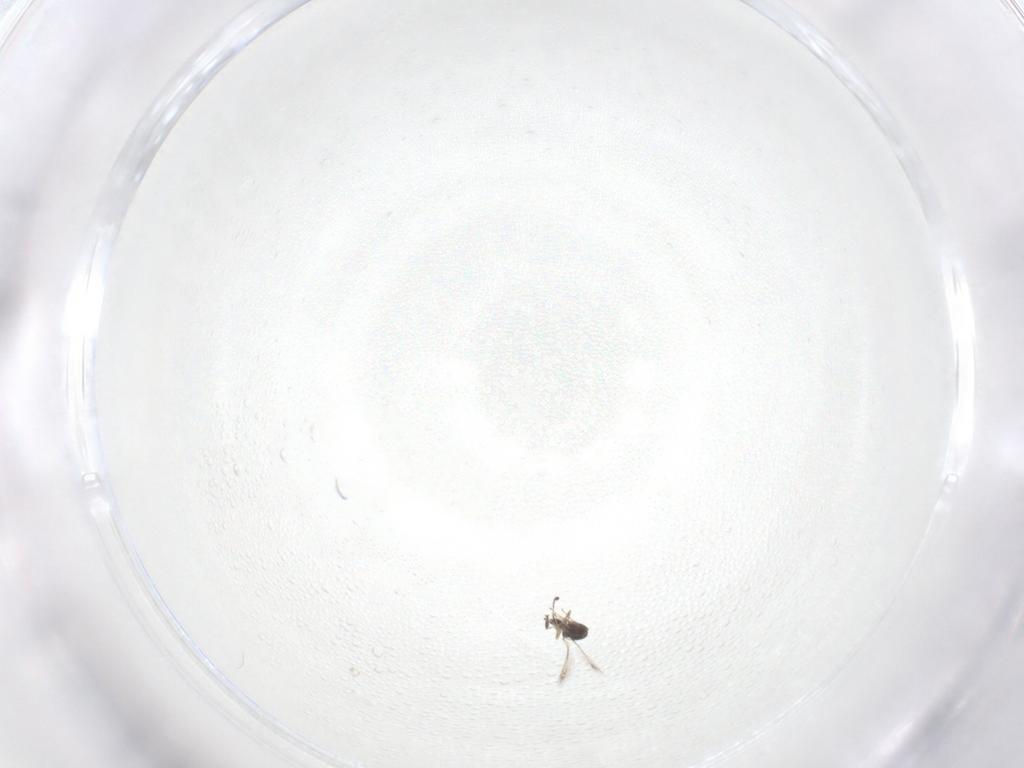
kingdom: Animalia
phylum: Arthropoda
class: Insecta
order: Hymenoptera
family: Mymaridae
